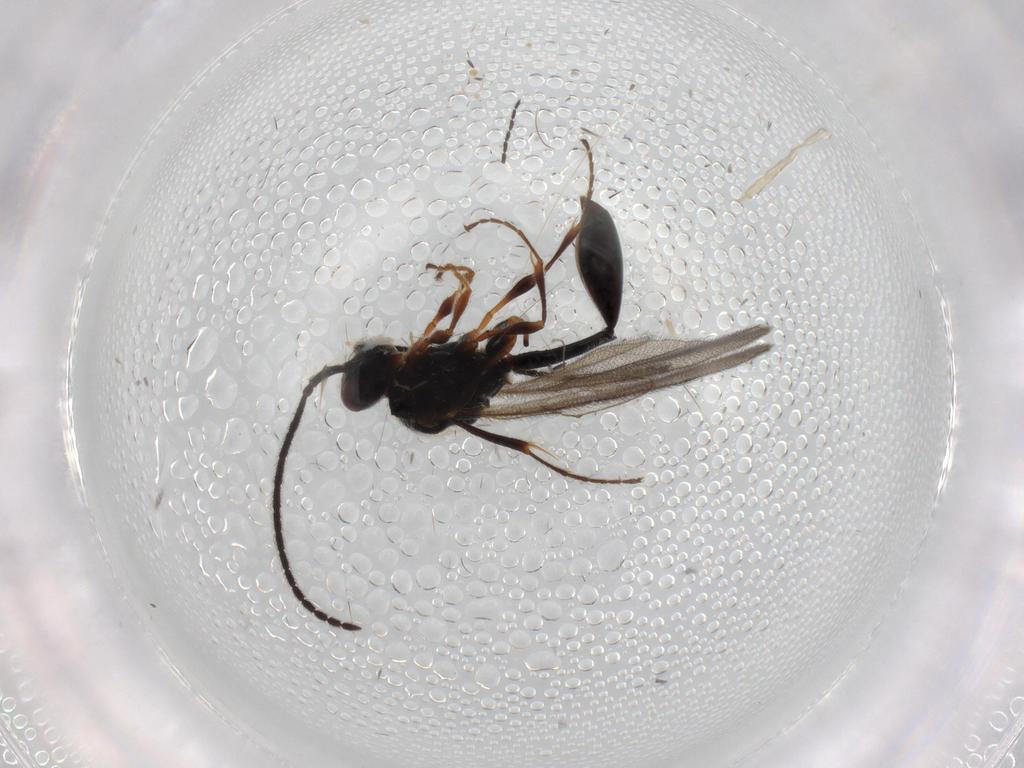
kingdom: Animalia
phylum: Arthropoda
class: Insecta
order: Hymenoptera
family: Diapriidae
